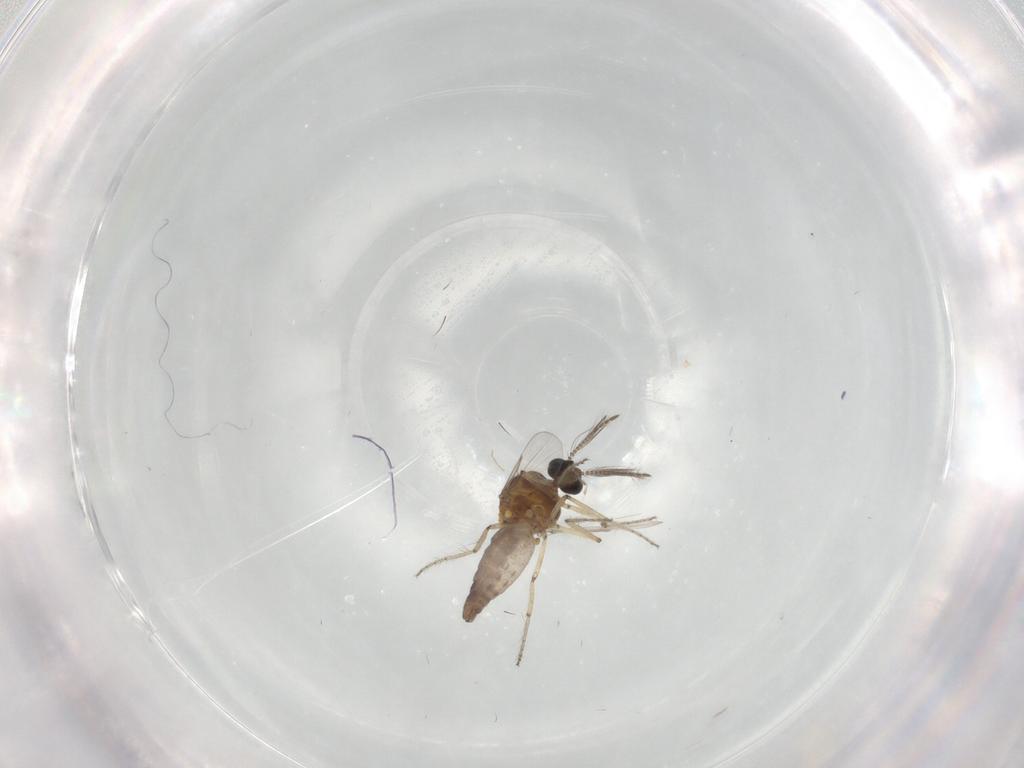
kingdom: Animalia
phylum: Arthropoda
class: Insecta
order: Diptera
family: Ceratopogonidae
